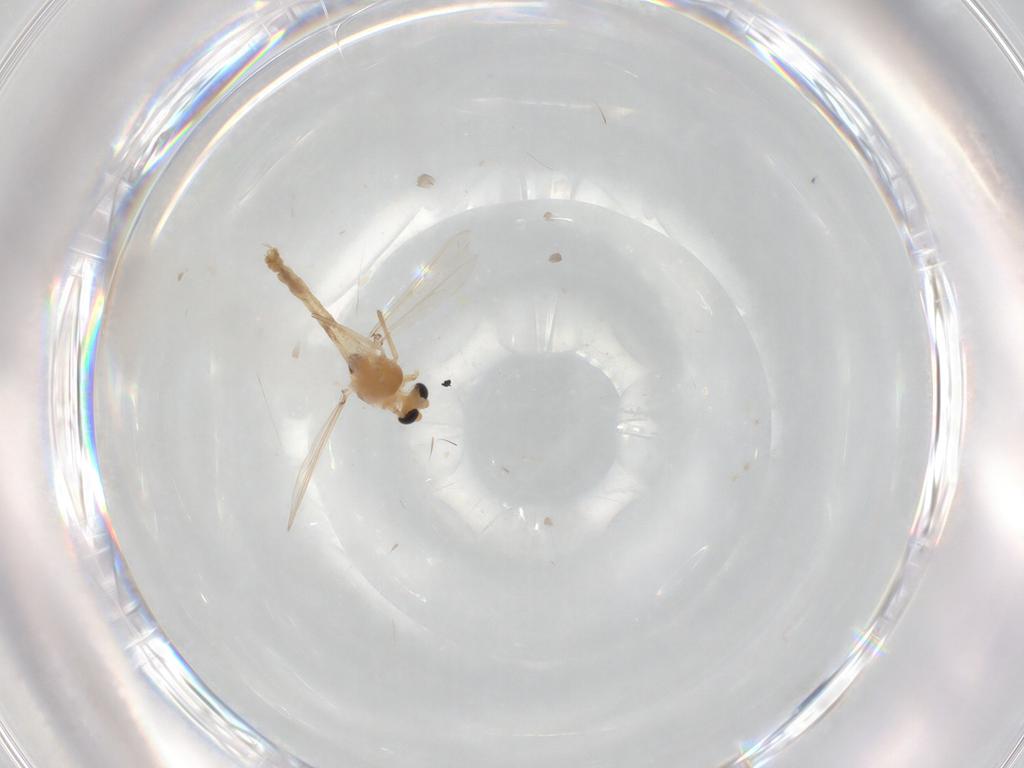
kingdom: Animalia
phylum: Arthropoda
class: Insecta
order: Diptera
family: Chironomidae
